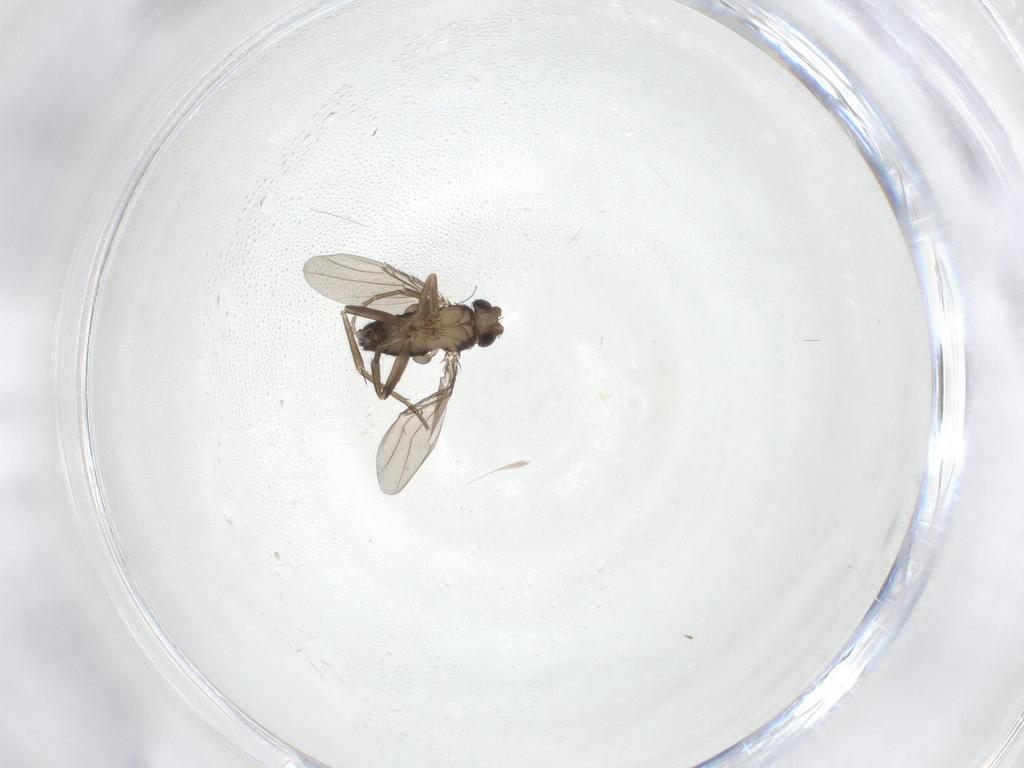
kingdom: Animalia
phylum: Arthropoda
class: Insecta
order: Diptera
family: Phoridae
